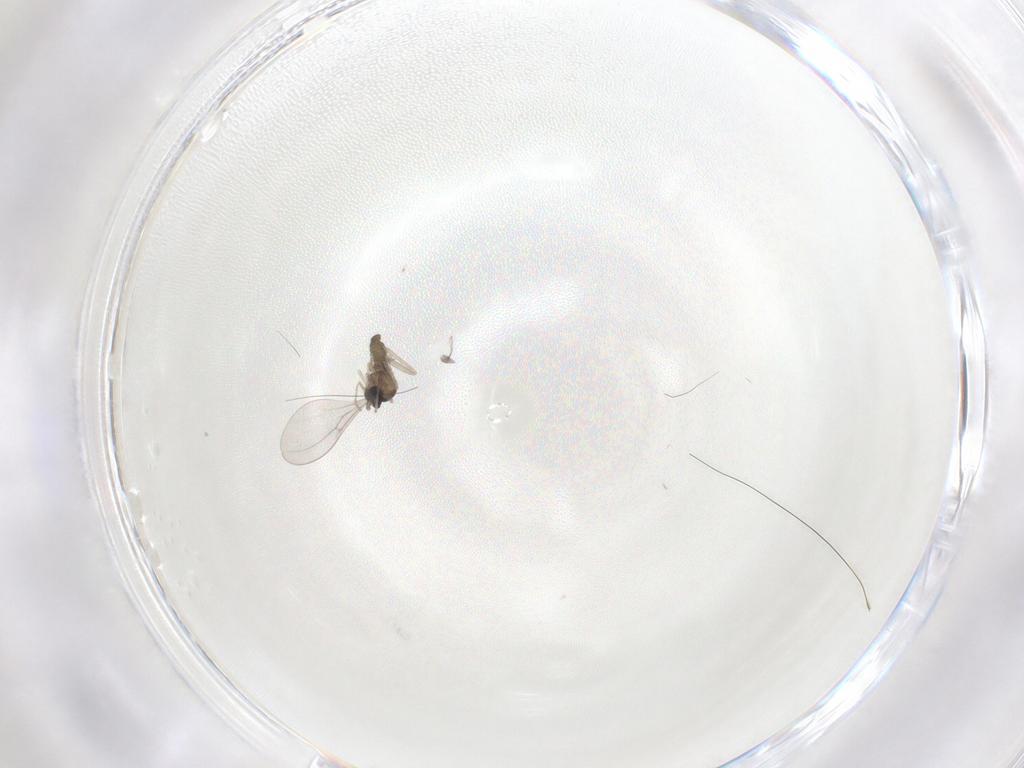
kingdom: Animalia
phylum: Arthropoda
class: Insecta
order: Diptera
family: Cecidomyiidae
